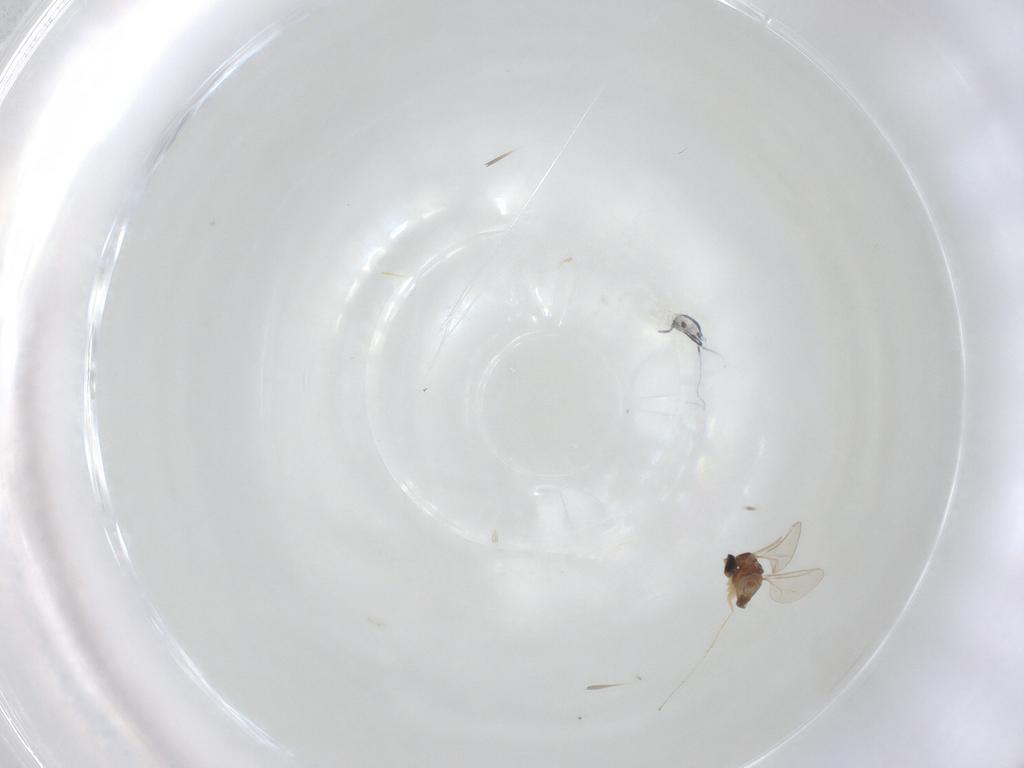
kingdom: Animalia
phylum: Arthropoda
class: Insecta
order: Diptera
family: Cecidomyiidae
